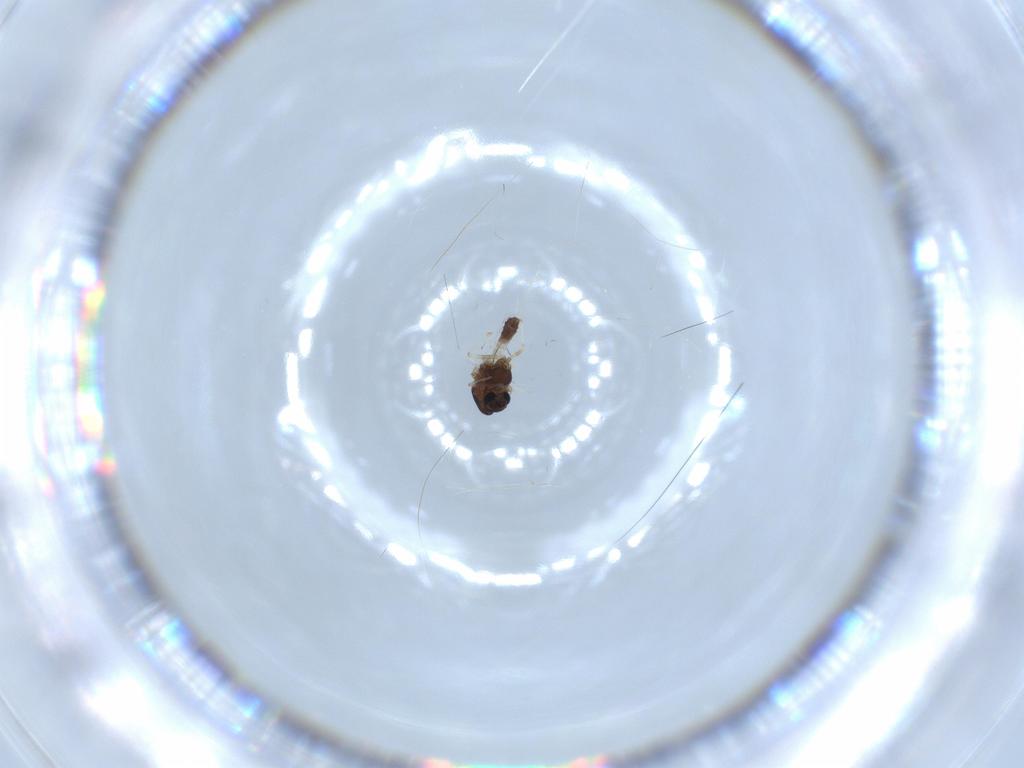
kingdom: Animalia
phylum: Arthropoda
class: Insecta
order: Diptera
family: Chironomidae
